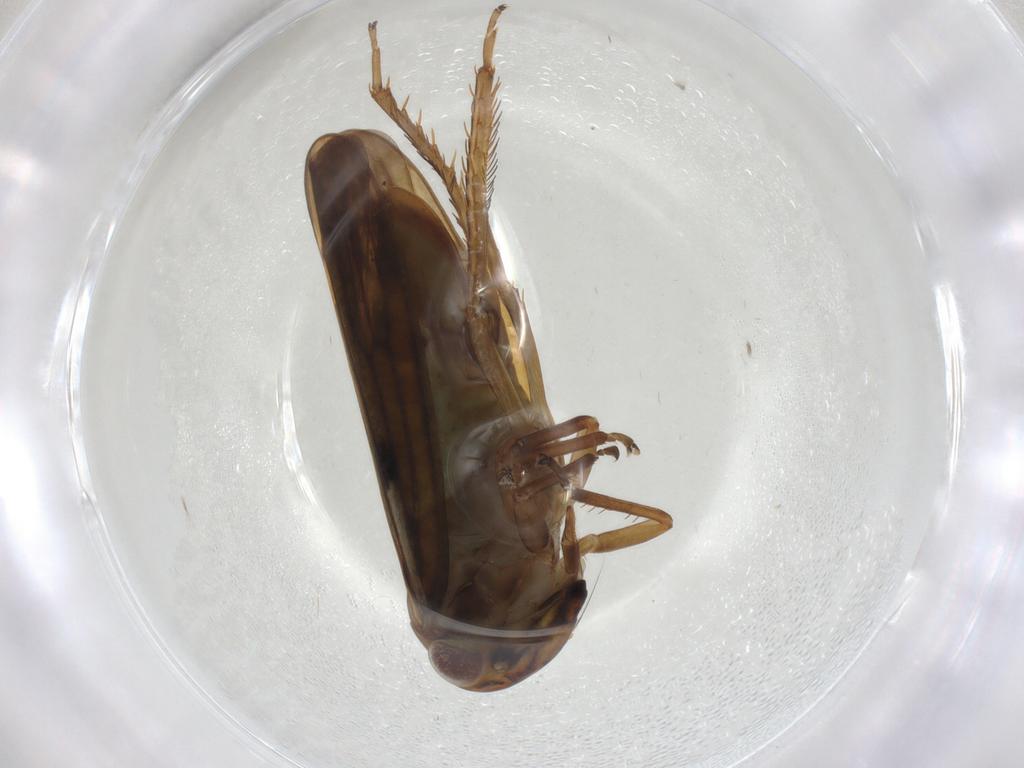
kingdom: Animalia
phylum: Arthropoda
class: Insecta
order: Hemiptera
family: Cicadellidae
